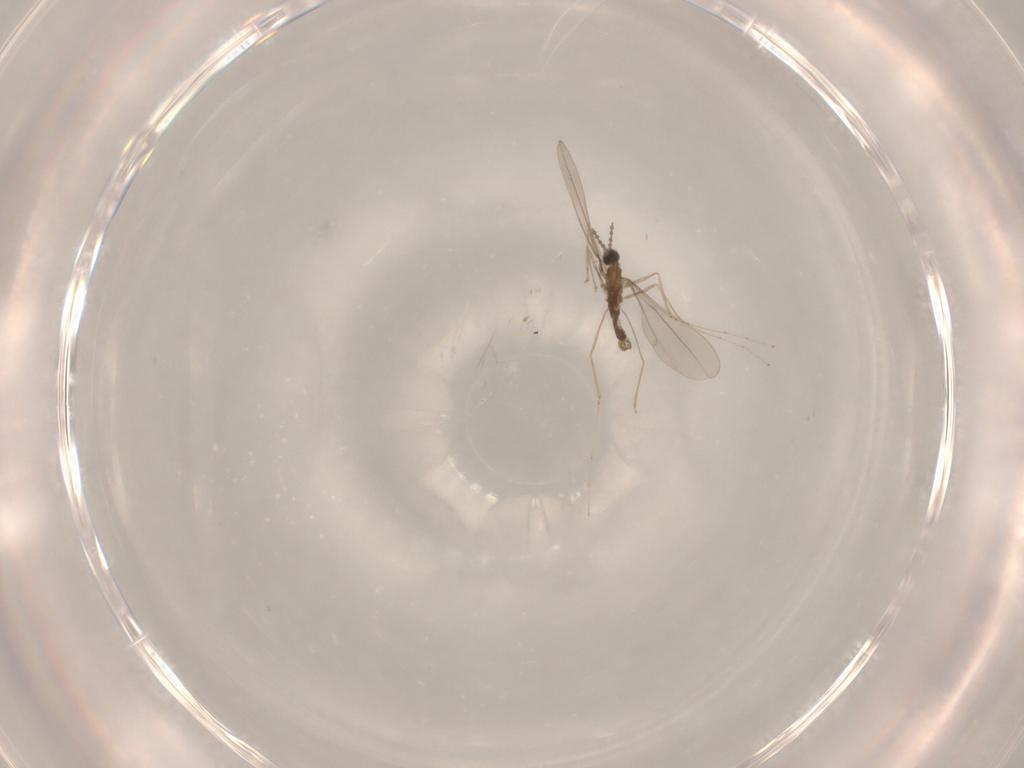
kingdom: Animalia
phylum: Arthropoda
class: Insecta
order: Diptera
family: Cecidomyiidae
